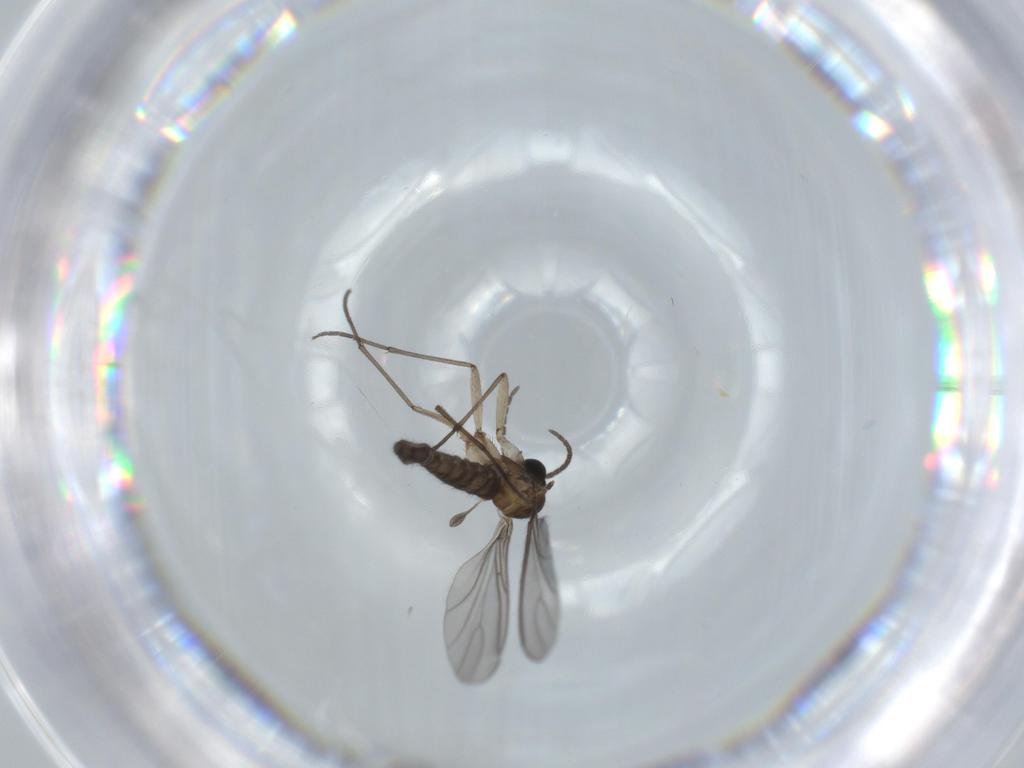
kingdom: Animalia
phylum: Arthropoda
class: Insecta
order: Diptera
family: Sciaridae
